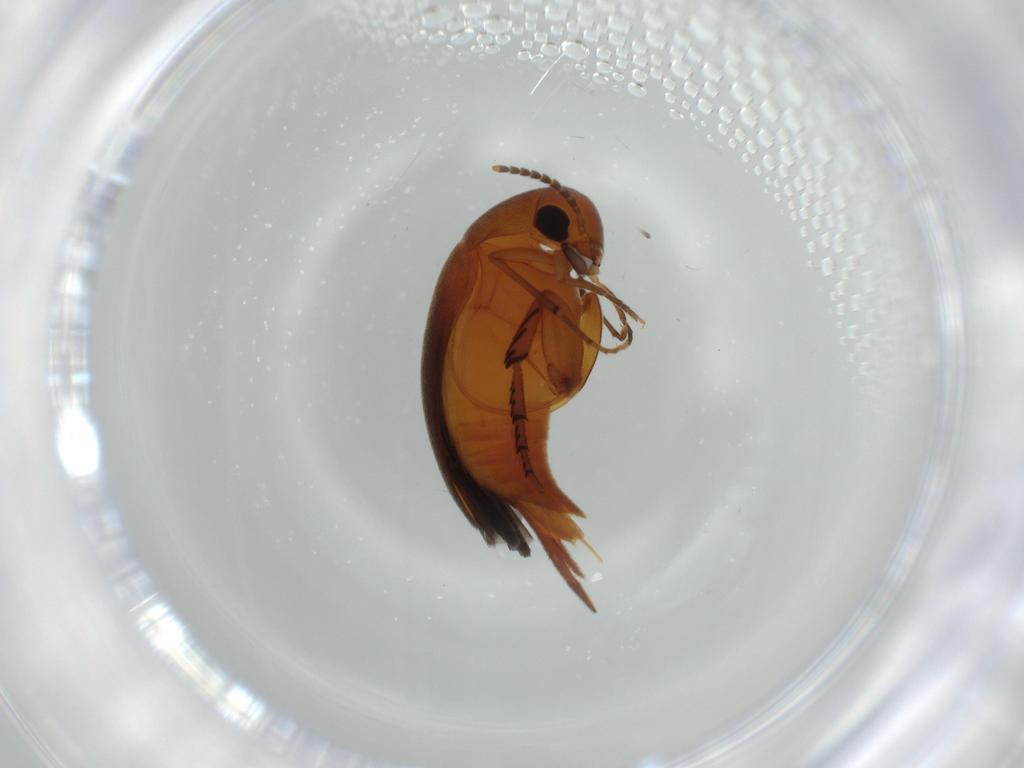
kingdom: Animalia
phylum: Arthropoda
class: Insecta
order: Coleoptera
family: Mordellidae
